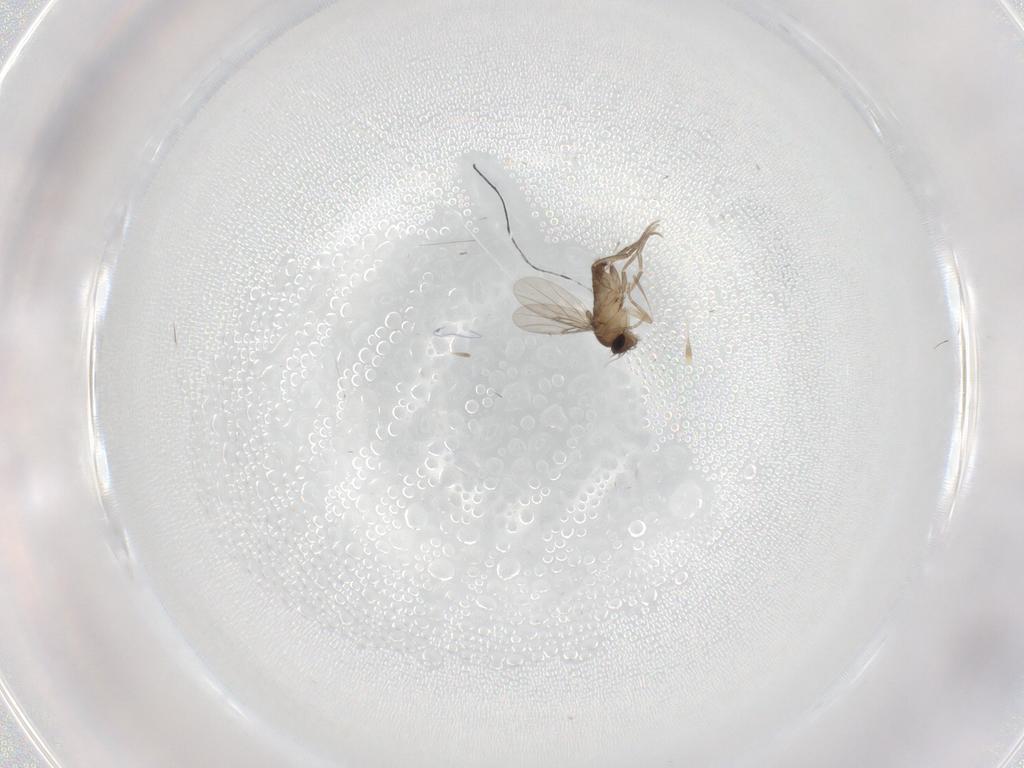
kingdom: Animalia
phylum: Arthropoda
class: Insecta
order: Diptera
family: Phoridae
